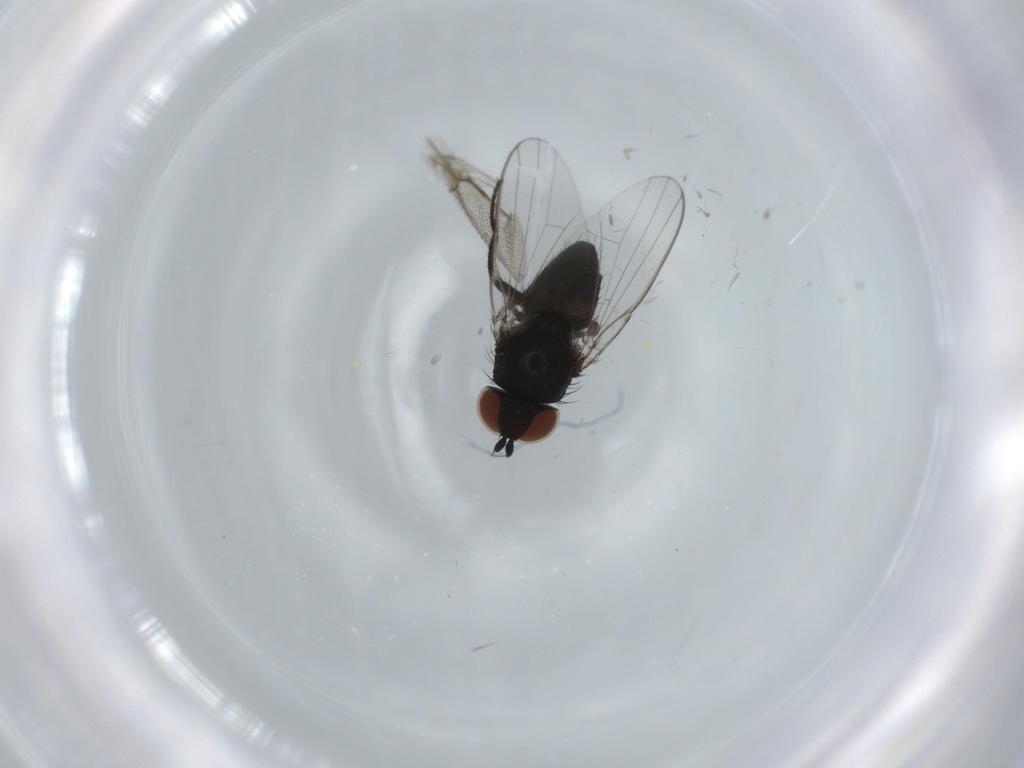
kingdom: Animalia
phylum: Arthropoda
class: Insecta
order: Diptera
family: Milichiidae
